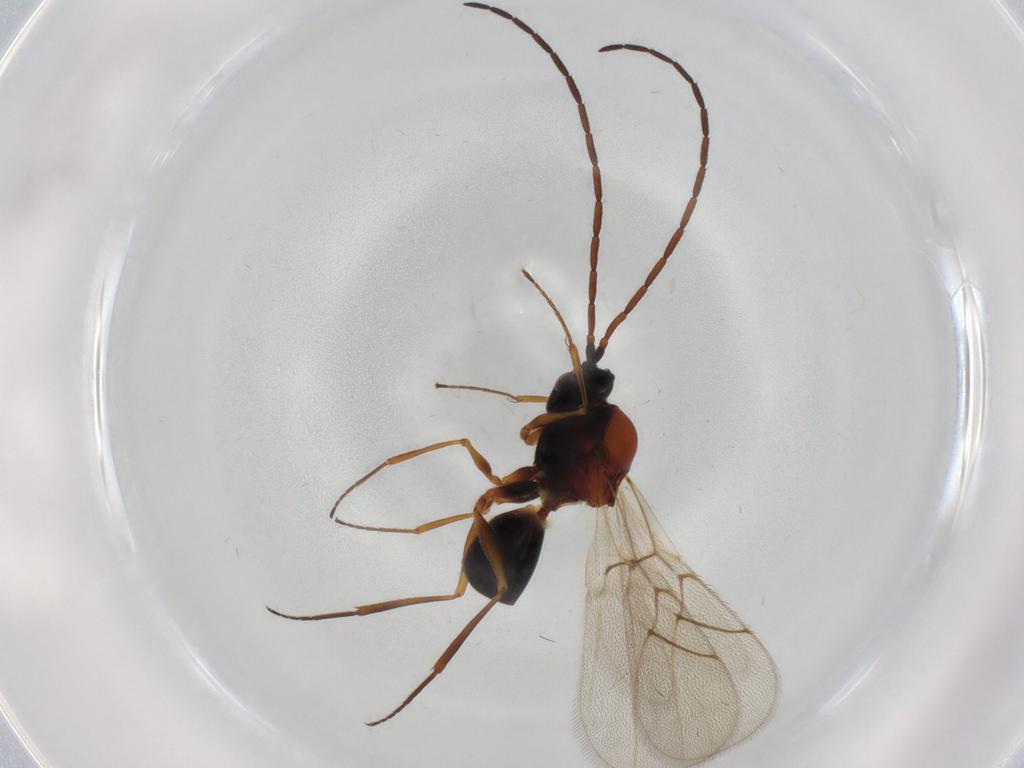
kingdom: Animalia
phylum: Arthropoda
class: Insecta
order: Hymenoptera
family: Figitidae
